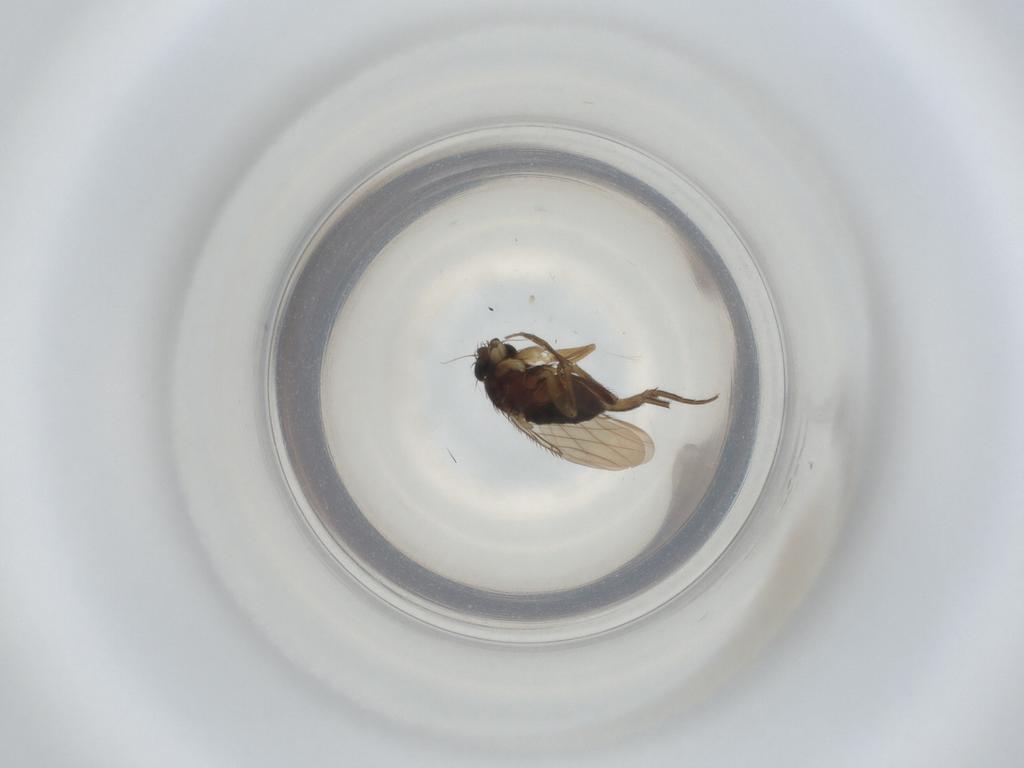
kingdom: Animalia
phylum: Arthropoda
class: Insecta
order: Diptera
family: Phoridae
